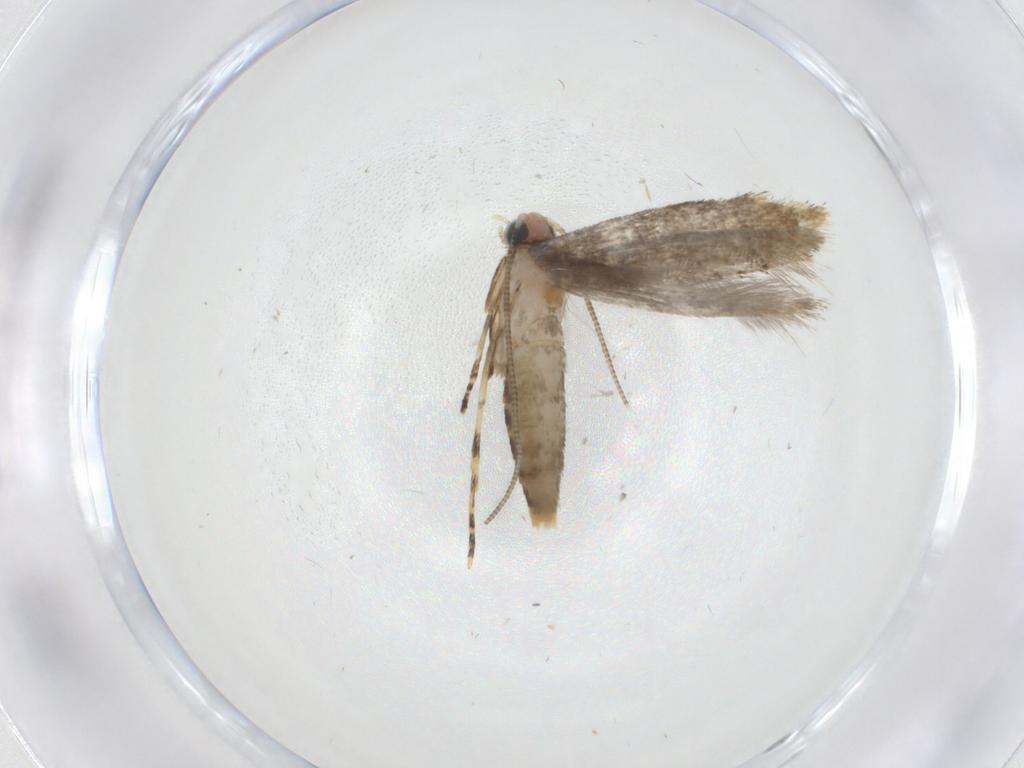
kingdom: Animalia
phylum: Arthropoda
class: Insecta
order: Lepidoptera
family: Tineidae
